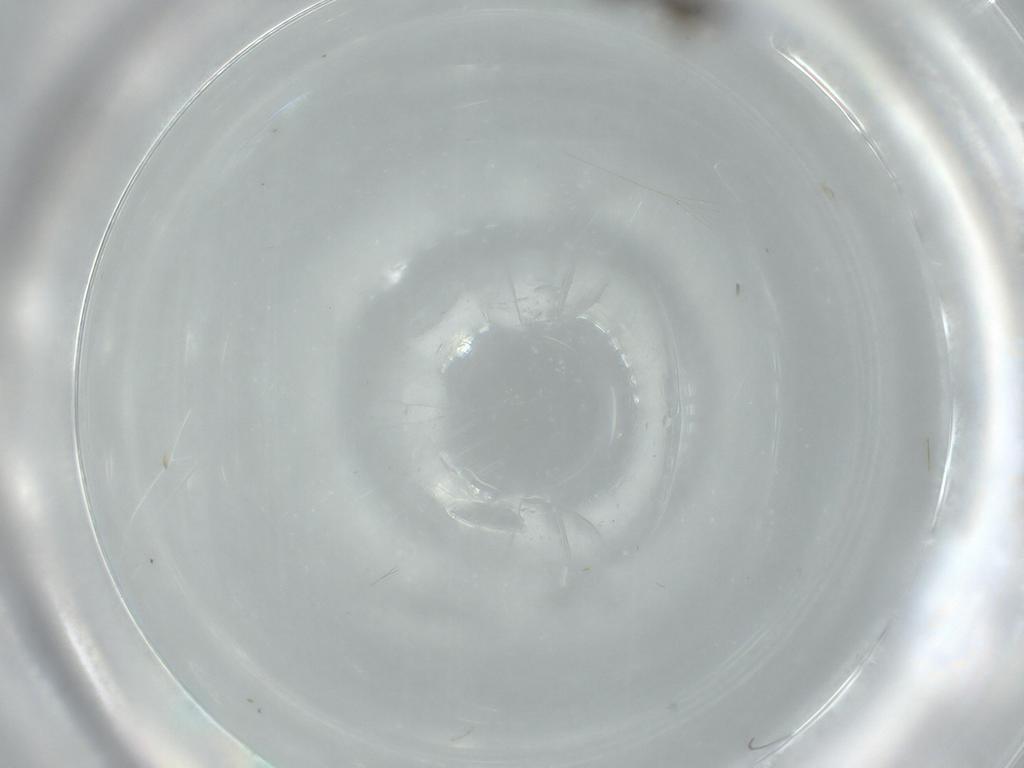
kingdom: Animalia
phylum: Arthropoda
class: Insecta
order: Diptera
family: Sciaridae
